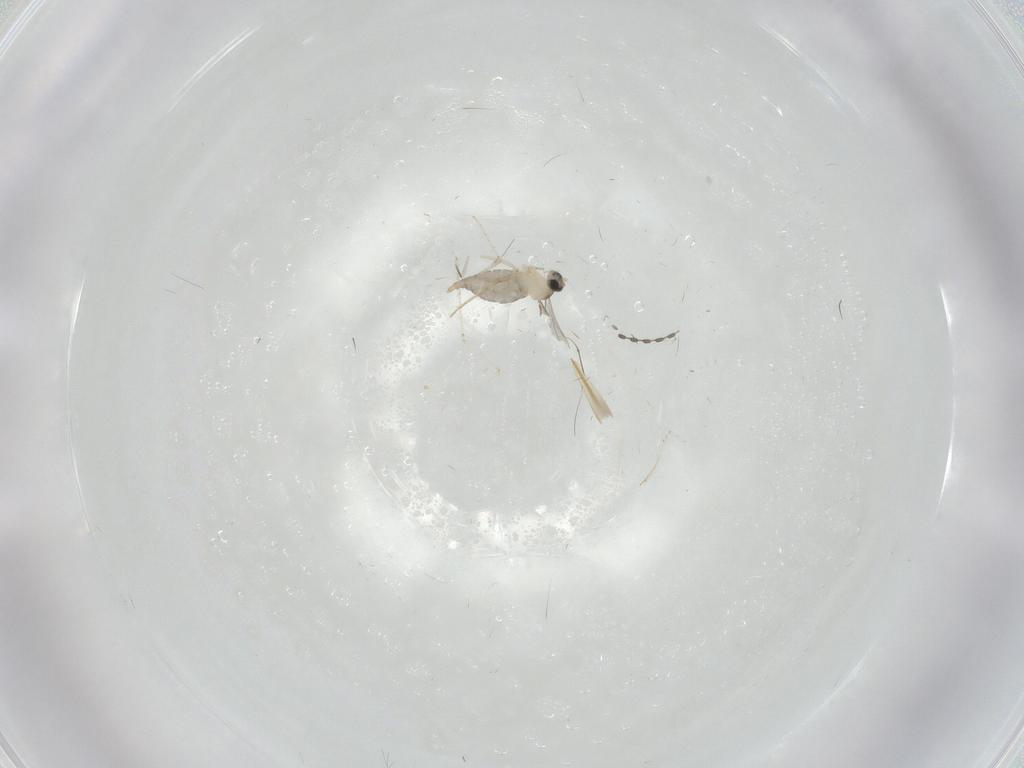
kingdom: Animalia
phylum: Arthropoda
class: Insecta
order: Diptera
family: Cecidomyiidae
